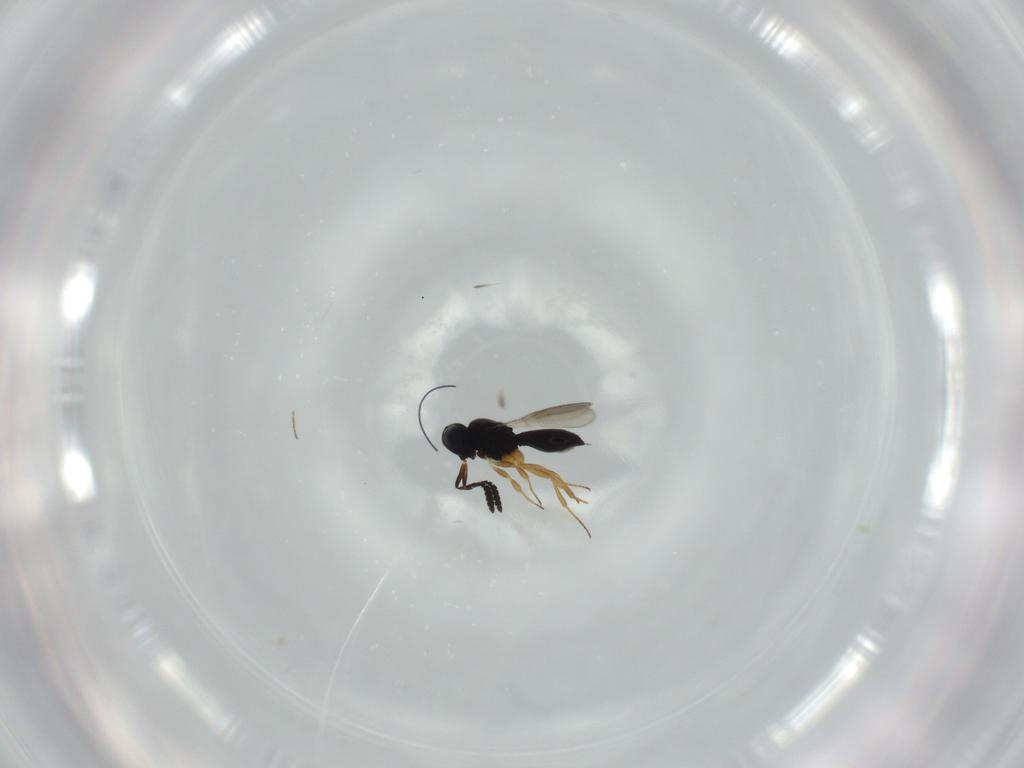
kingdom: Animalia
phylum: Arthropoda
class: Insecta
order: Hymenoptera
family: Scelionidae
